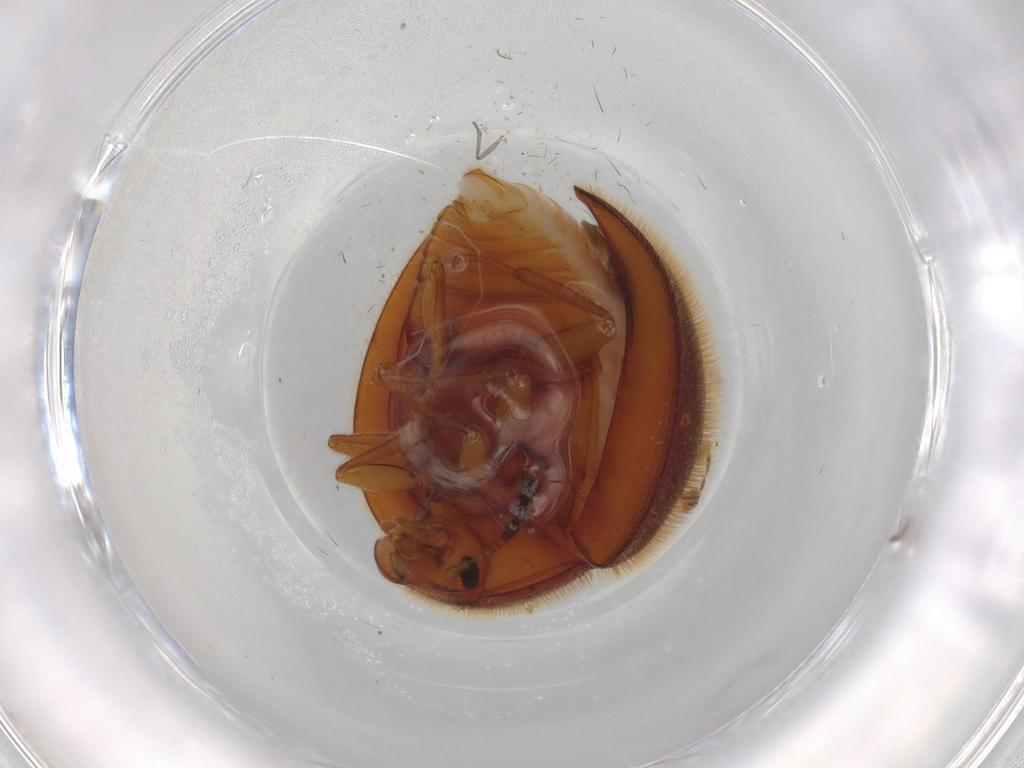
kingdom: Animalia
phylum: Arthropoda
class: Insecta
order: Coleoptera
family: Anamorphidae
